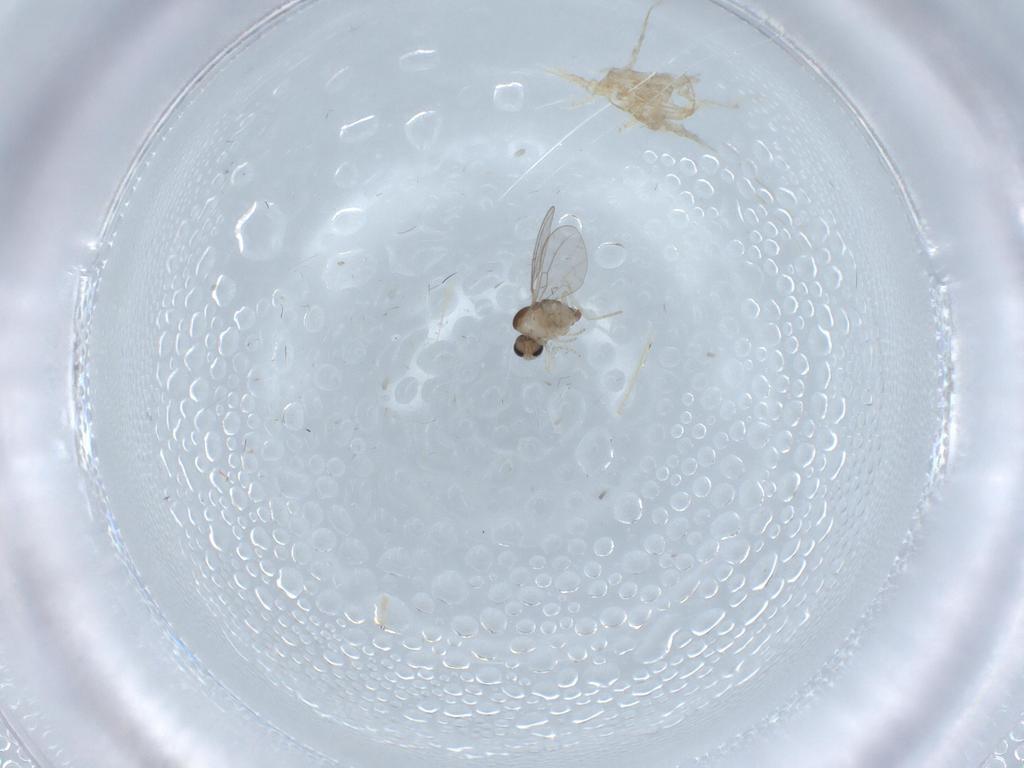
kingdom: Animalia
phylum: Arthropoda
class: Insecta
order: Diptera
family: Cecidomyiidae
